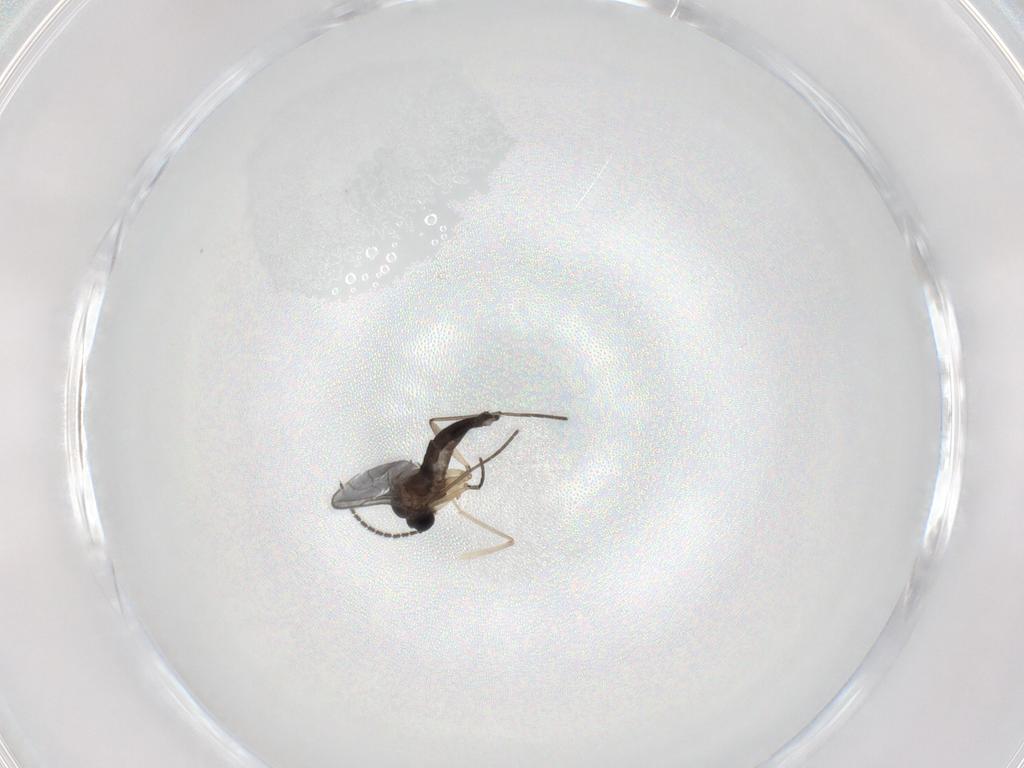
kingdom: Animalia
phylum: Arthropoda
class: Insecta
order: Diptera
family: Sciaridae
